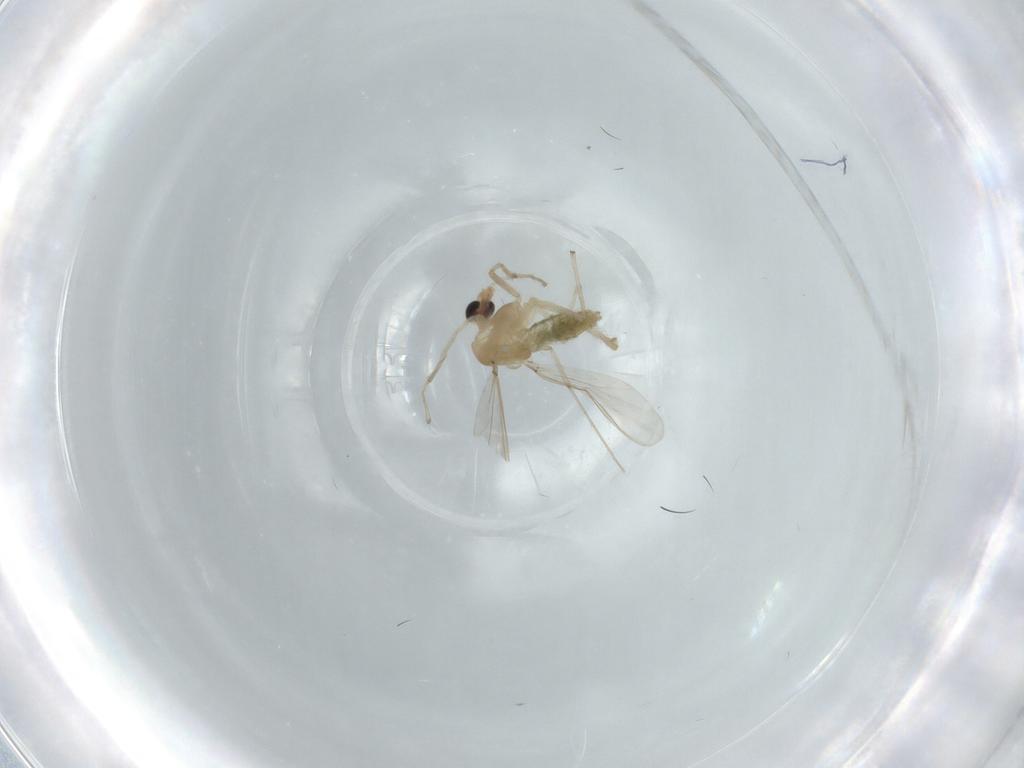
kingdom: Animalia
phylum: Arthropoda
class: Insecta
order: Diptera
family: Chironomidae
